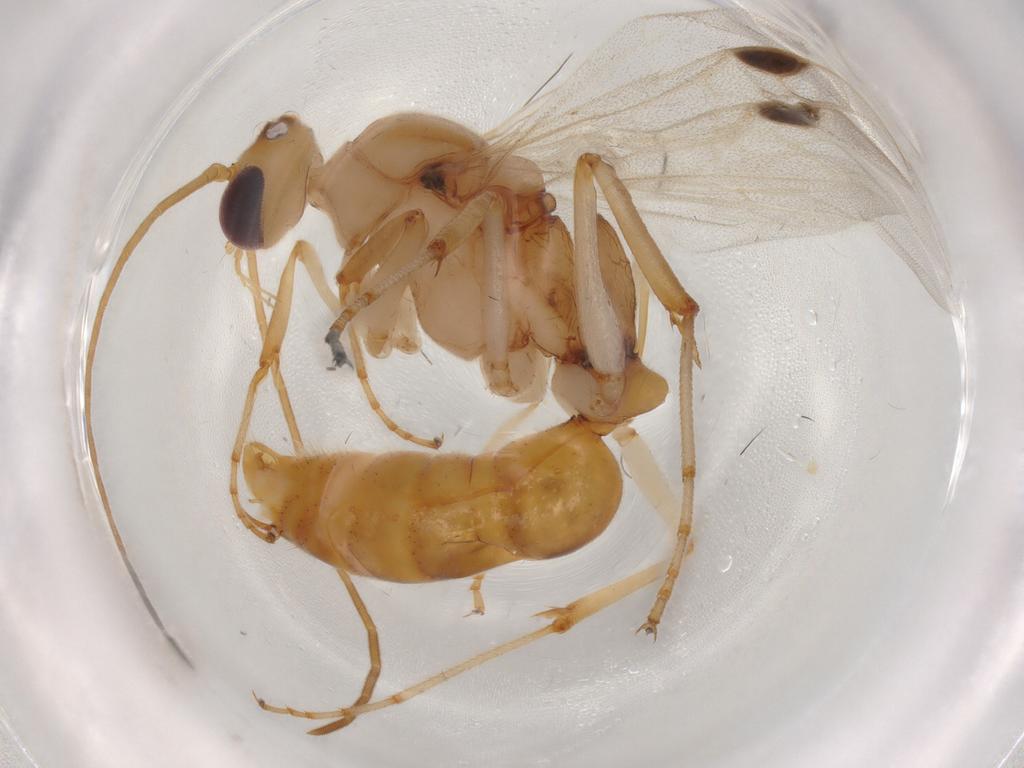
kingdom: Animalia
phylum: Arthropoda
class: Insecta
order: Hymenoptera
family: Formicidae
